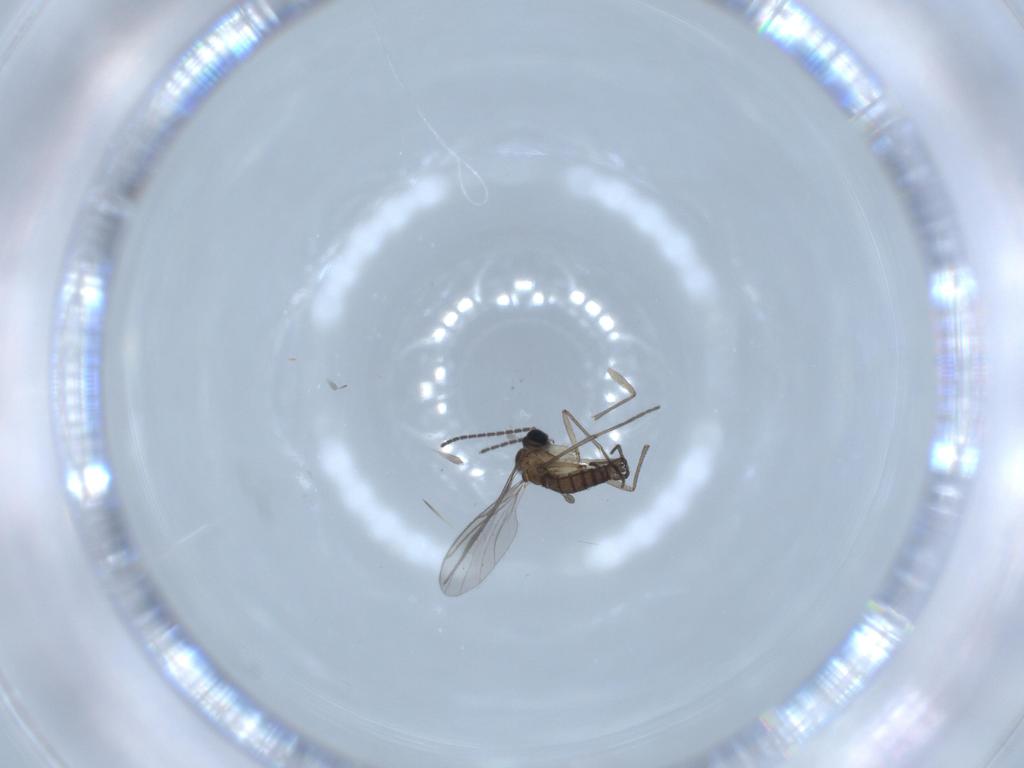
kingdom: Animalia
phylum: Arthropoda
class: Insecta
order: Diptera
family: Sciaridae
